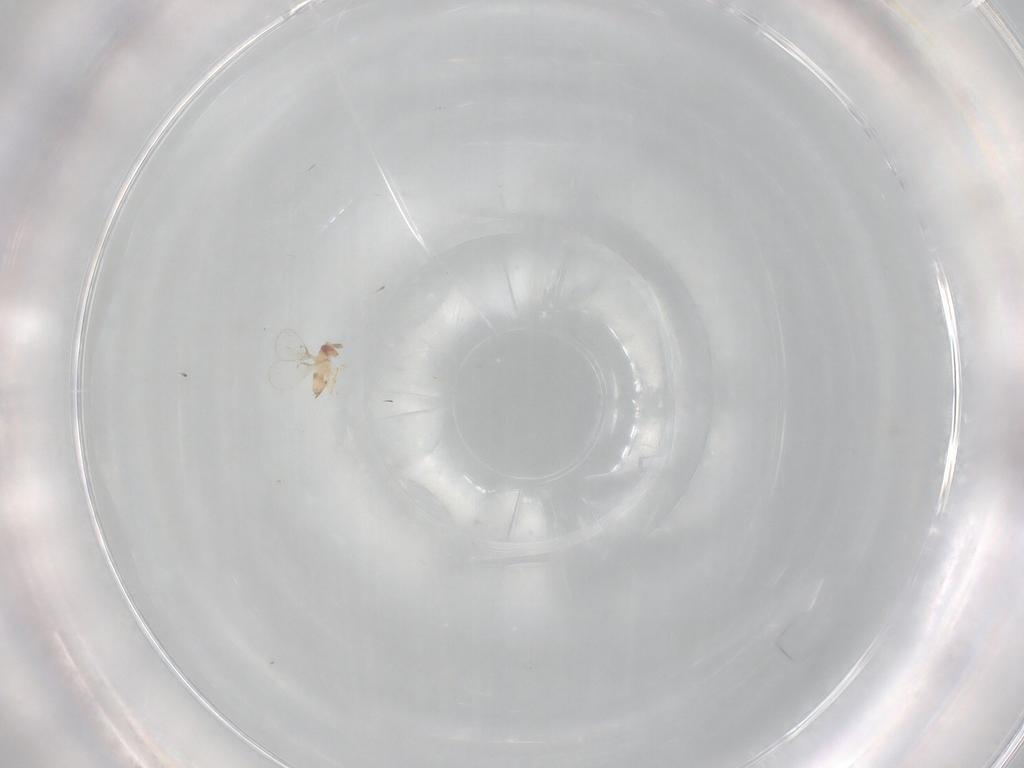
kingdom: Animalia
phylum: Arthropoda
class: Insecta
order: Hymenoptera
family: Trichogrammatidae
